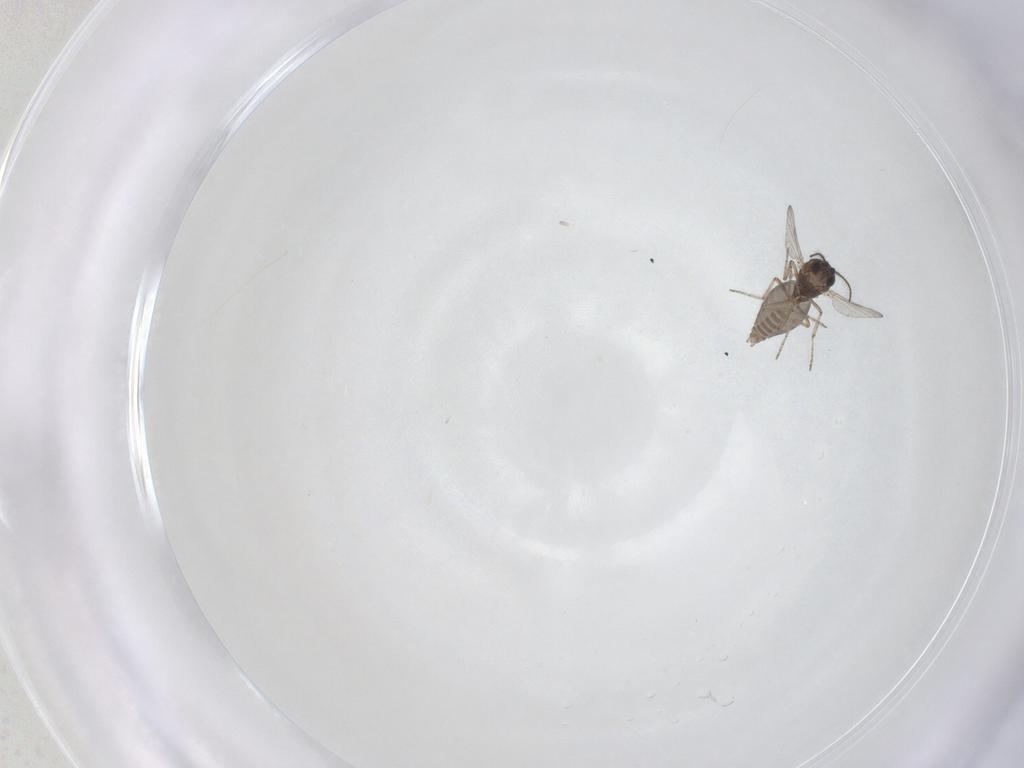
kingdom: Animalia
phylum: Arthropoda
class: Insecta
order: Diptera
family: Ceratopogonidae
